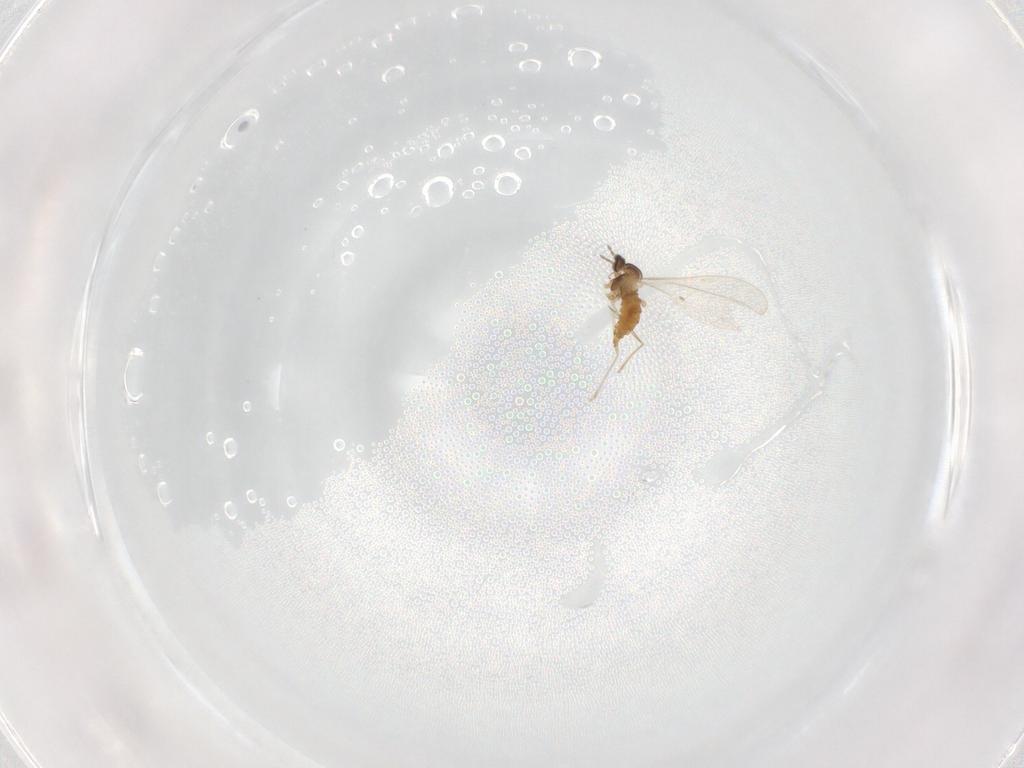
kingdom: Animalia
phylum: Arthropoda
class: Insecta
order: Diptera
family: Cecidomyiidae
